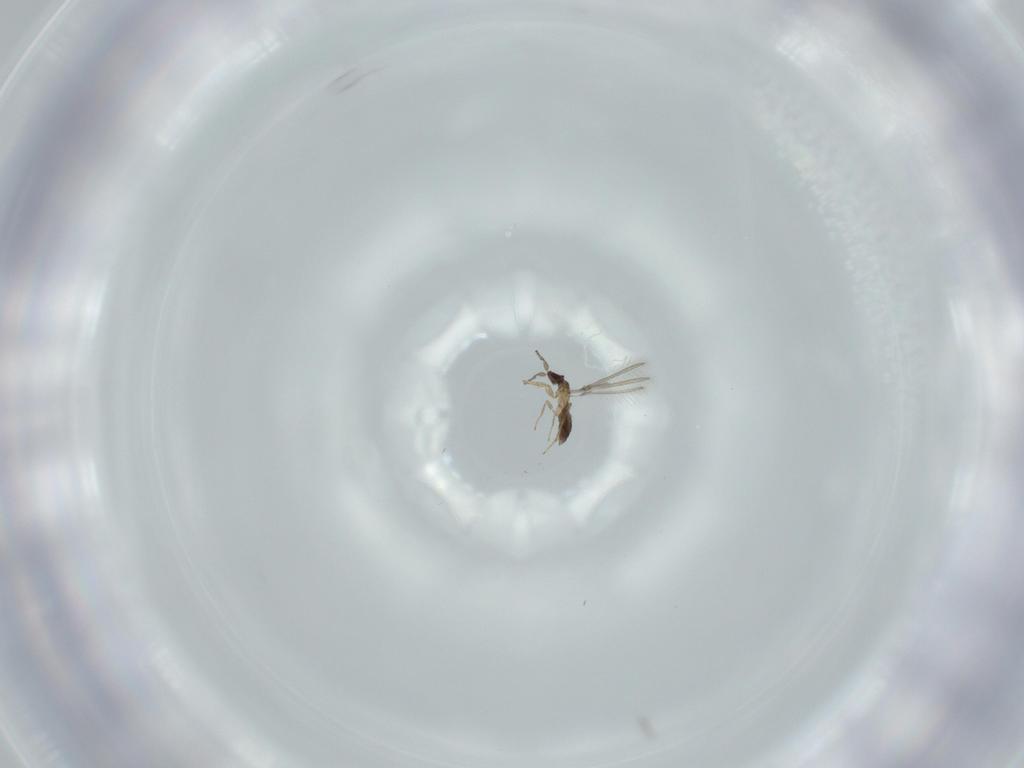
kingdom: Animalia
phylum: Arthropoda
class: Insecta
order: Hymenoptera
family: Mymaridae
